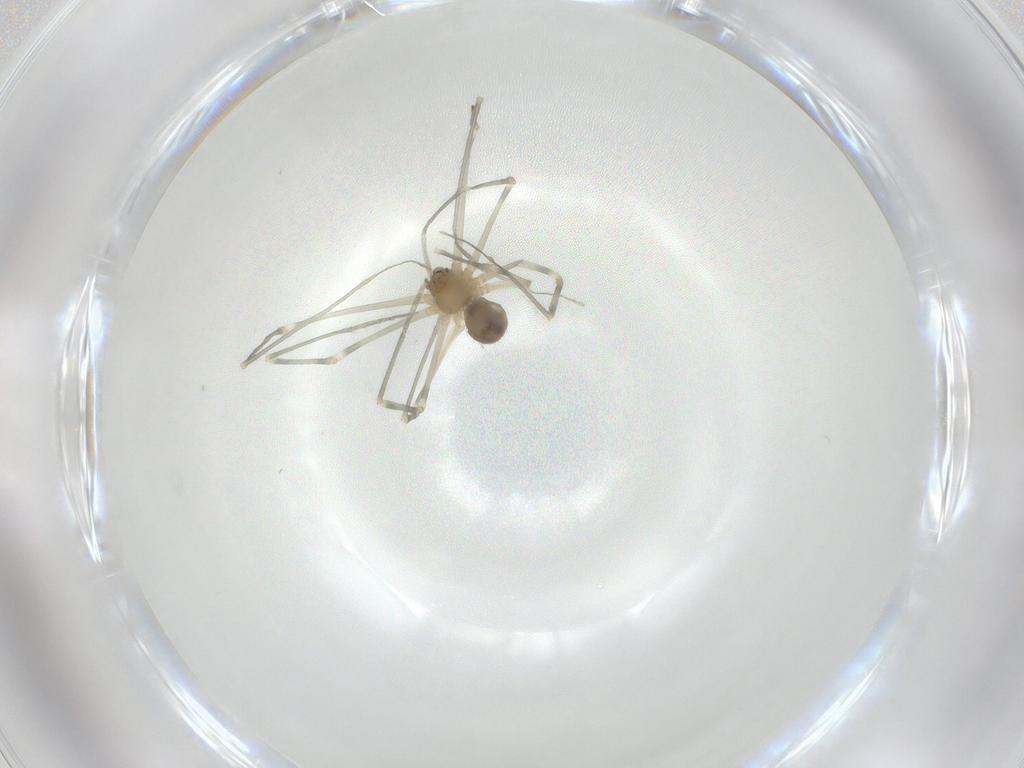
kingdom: Animalia
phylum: Arthropoda
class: Arachnida
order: Araneae
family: Pholcidae
